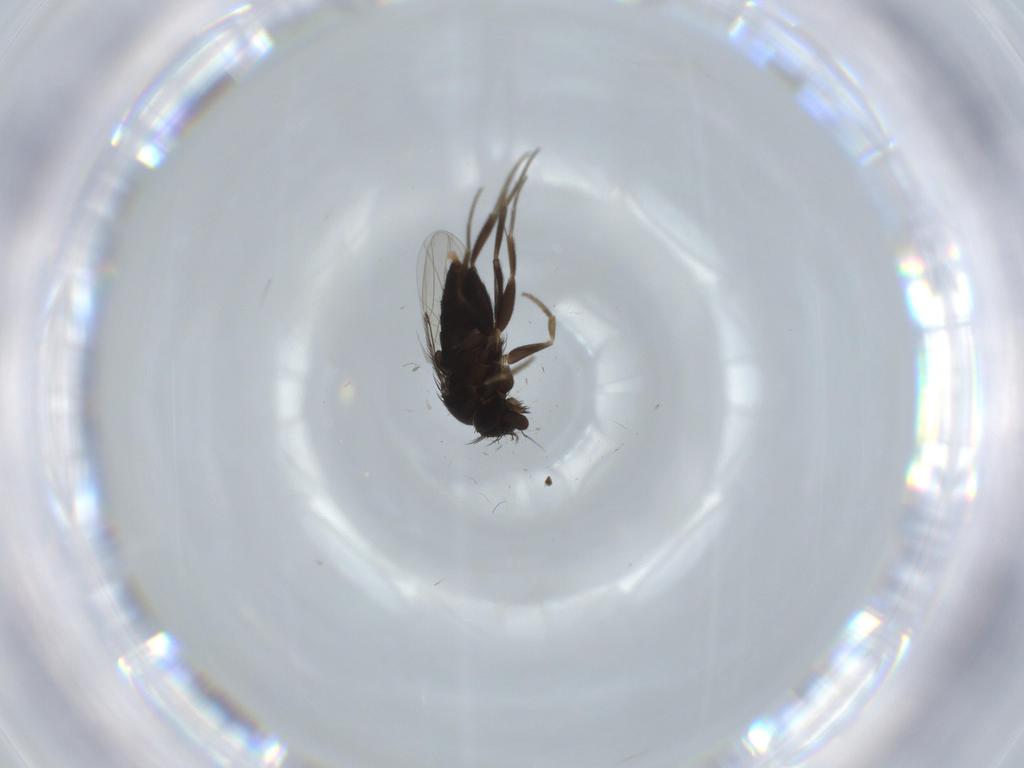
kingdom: Animalia
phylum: Arthropoda
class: Insecta
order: Diptera
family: Phoridae
